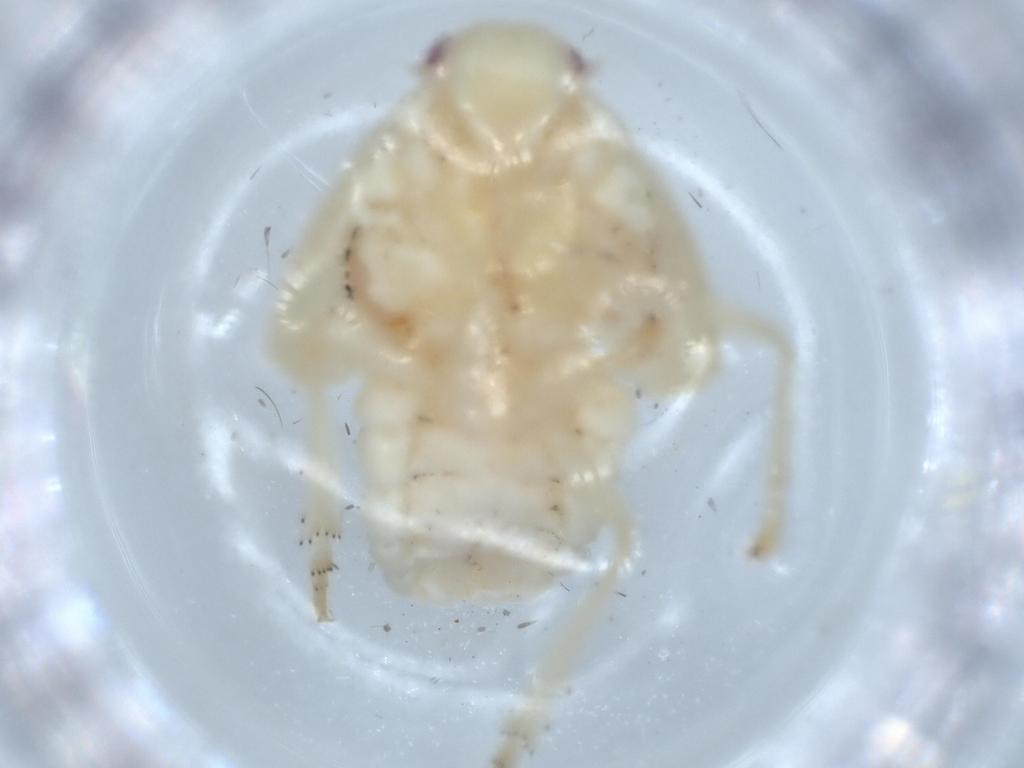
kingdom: Animalia
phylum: Arthropoda
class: Insecta
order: Hemiptera
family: Flatidae
